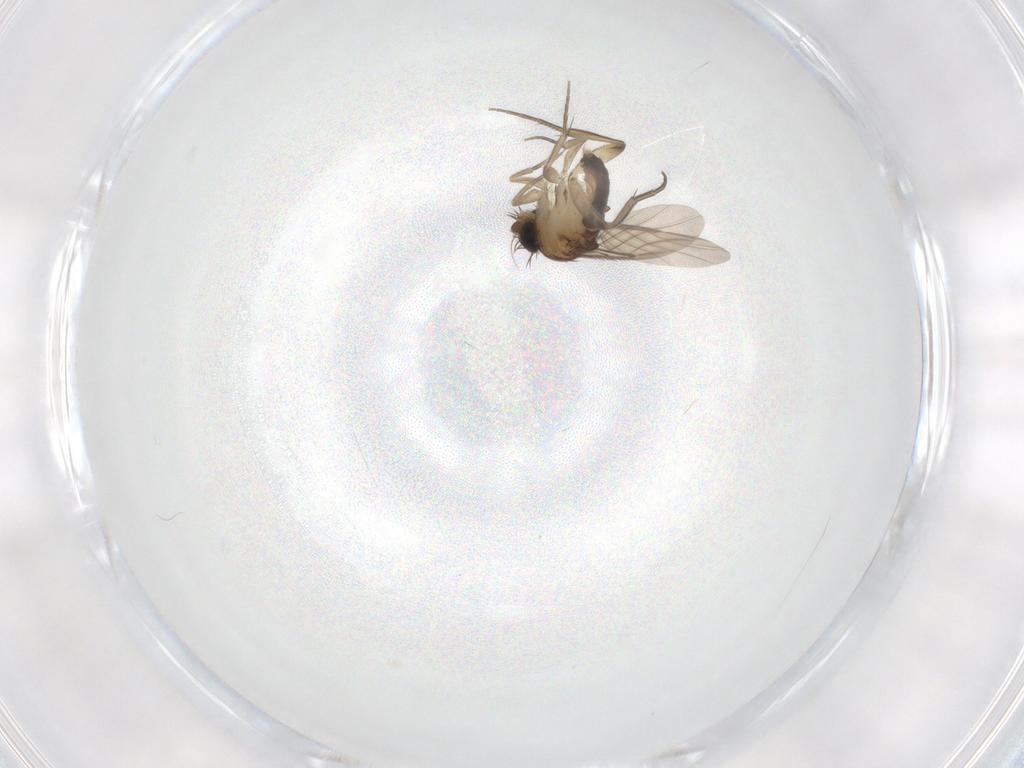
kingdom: Animalia
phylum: Arthropoda
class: Insecta
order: Diptera
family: Phoridae
